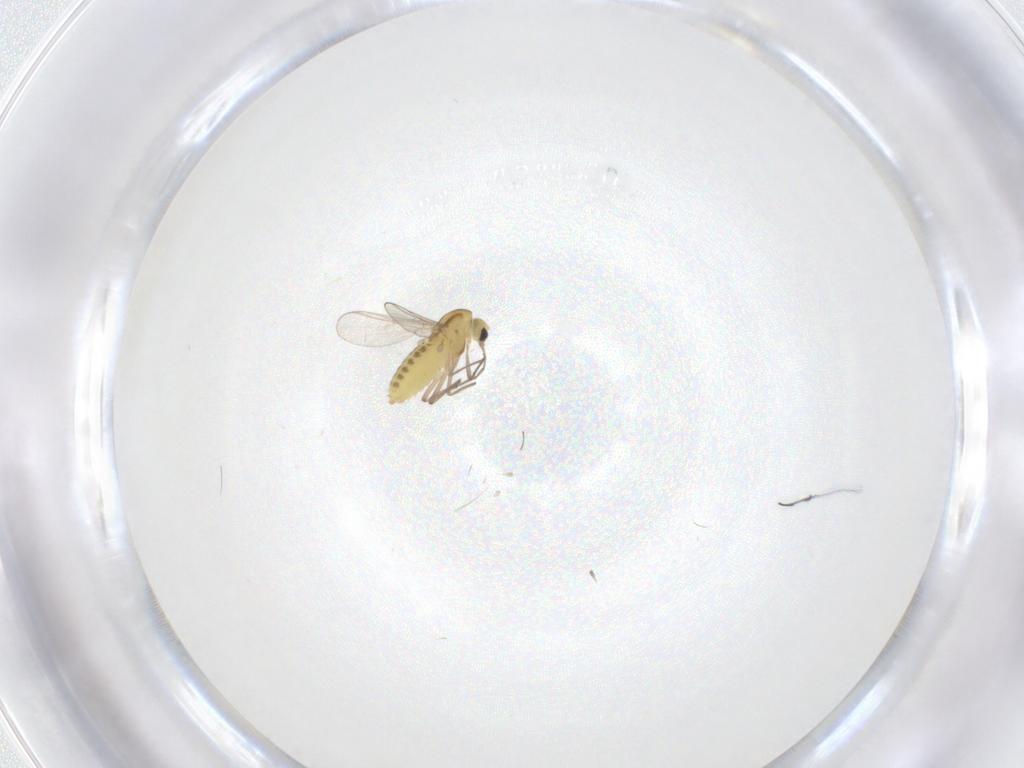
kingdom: Animalia
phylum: Arthropoda
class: Insecta
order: Diptera
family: Chironomidae
